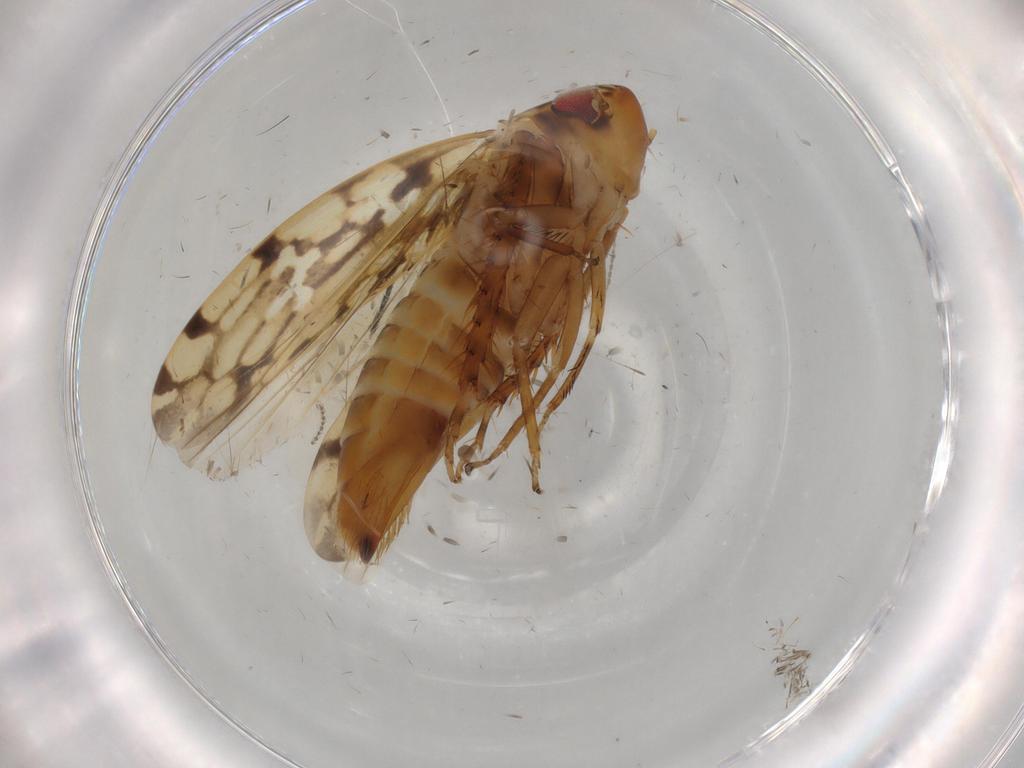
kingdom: Animalia
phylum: Arthropoda
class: Insecta
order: Hemiptera
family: Cicadellidae
